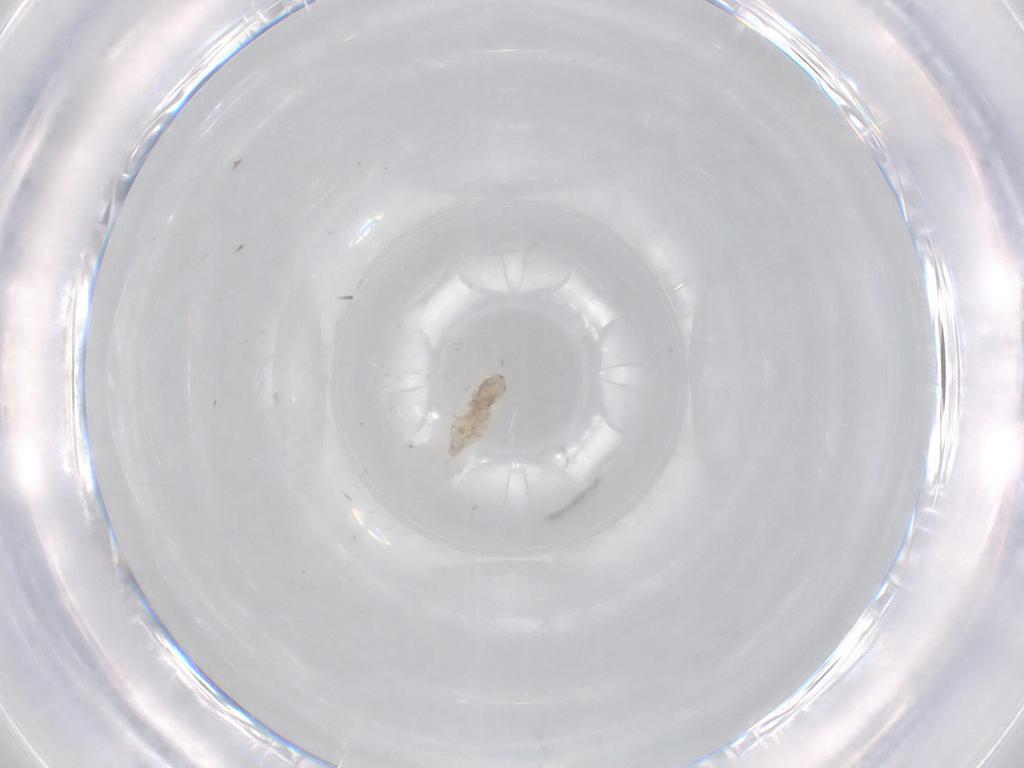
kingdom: Animalia
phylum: Arthropoda
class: Insecta
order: Diptera
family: Cecidomyiidae
